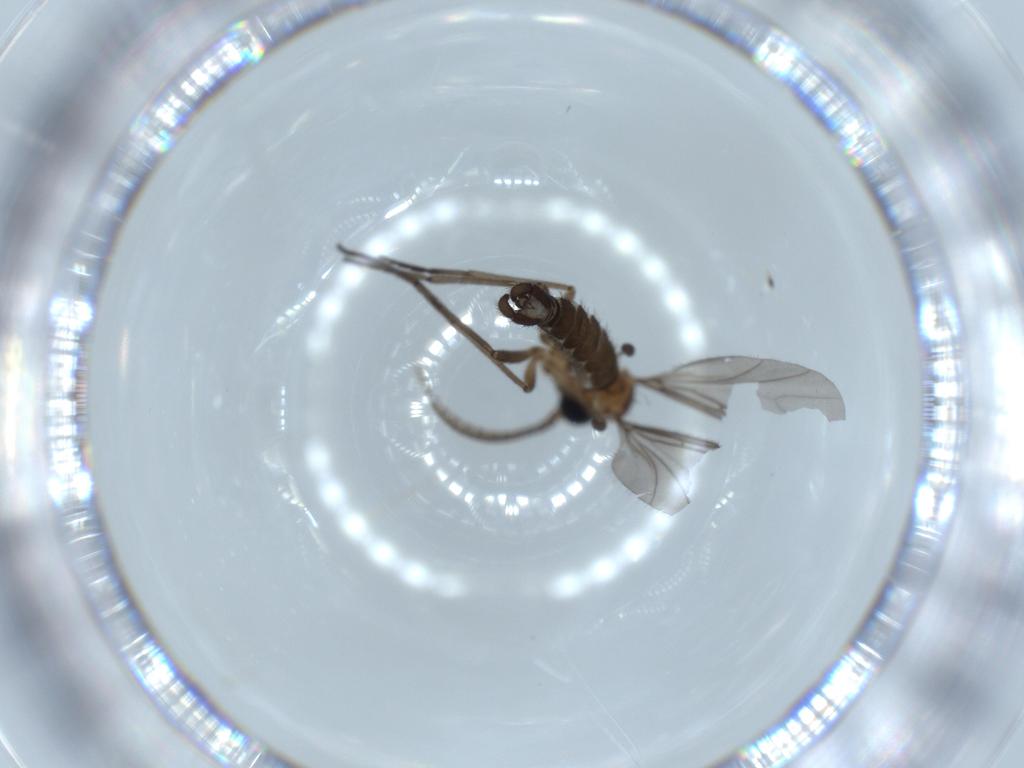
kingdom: Animalia
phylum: Arthropoda
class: Insecta
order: Diptera
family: Sciaridae
